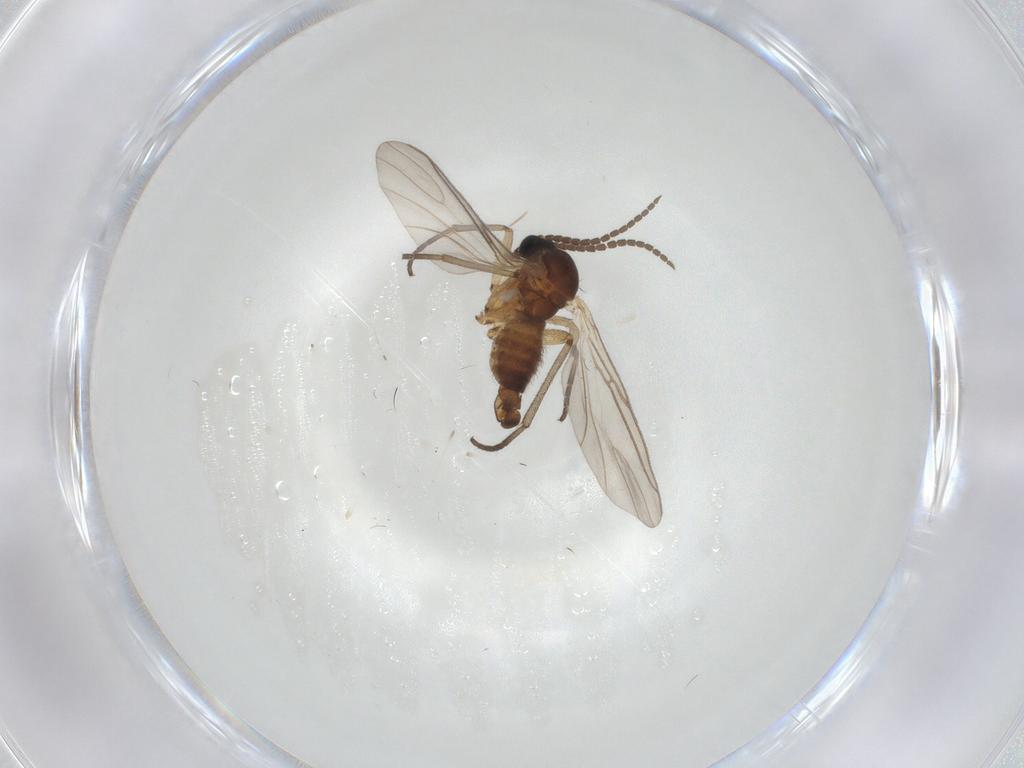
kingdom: Animalia
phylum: Arthropoda
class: Insecta
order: Diptera
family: Sciaridae
